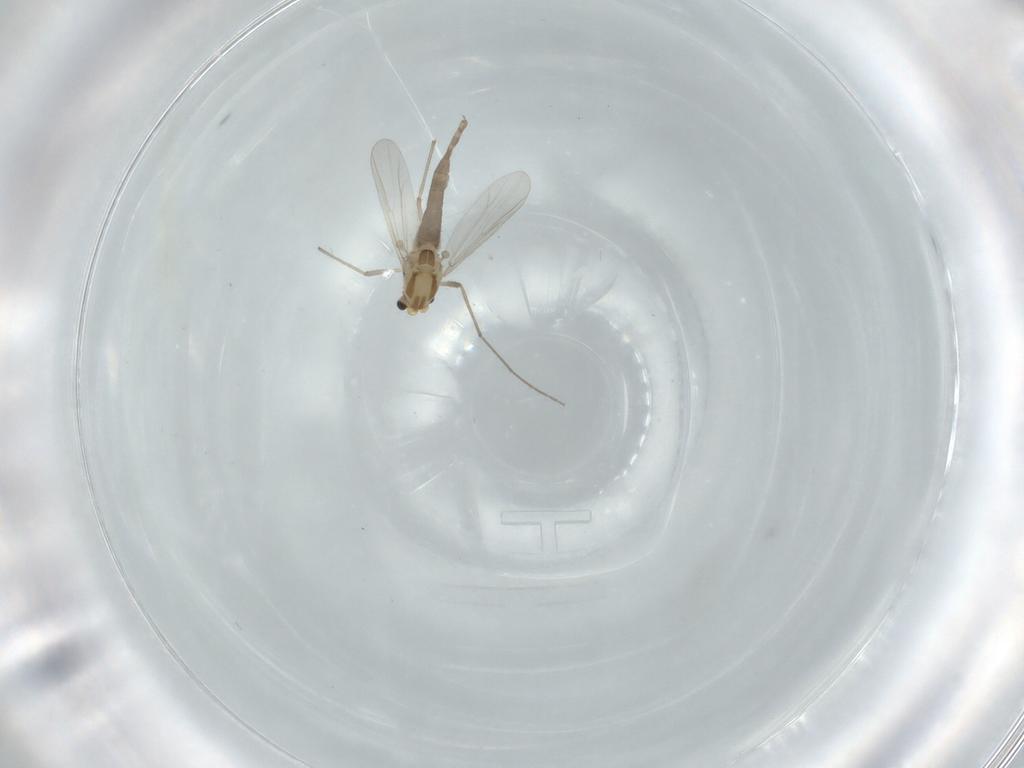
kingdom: Animalia
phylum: Arthropoda
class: Insecta
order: Diptera
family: Chironomidae
